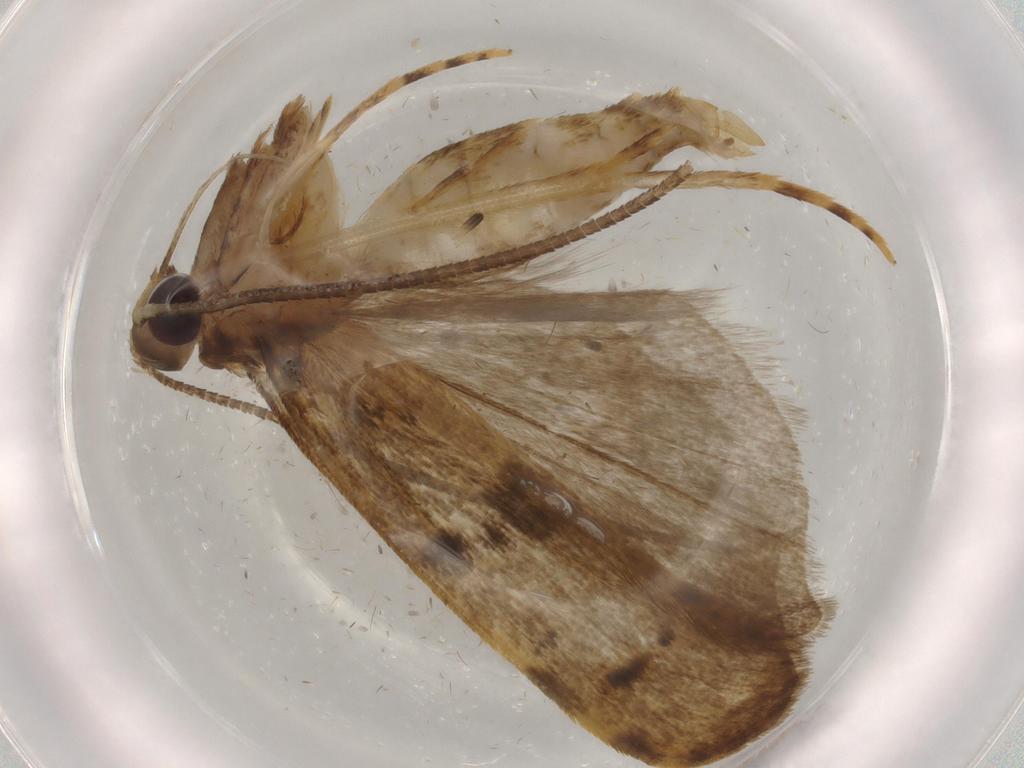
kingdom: Animalia
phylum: Arthropoda
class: Insecta
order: Lepidoptera
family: Autostichidae
